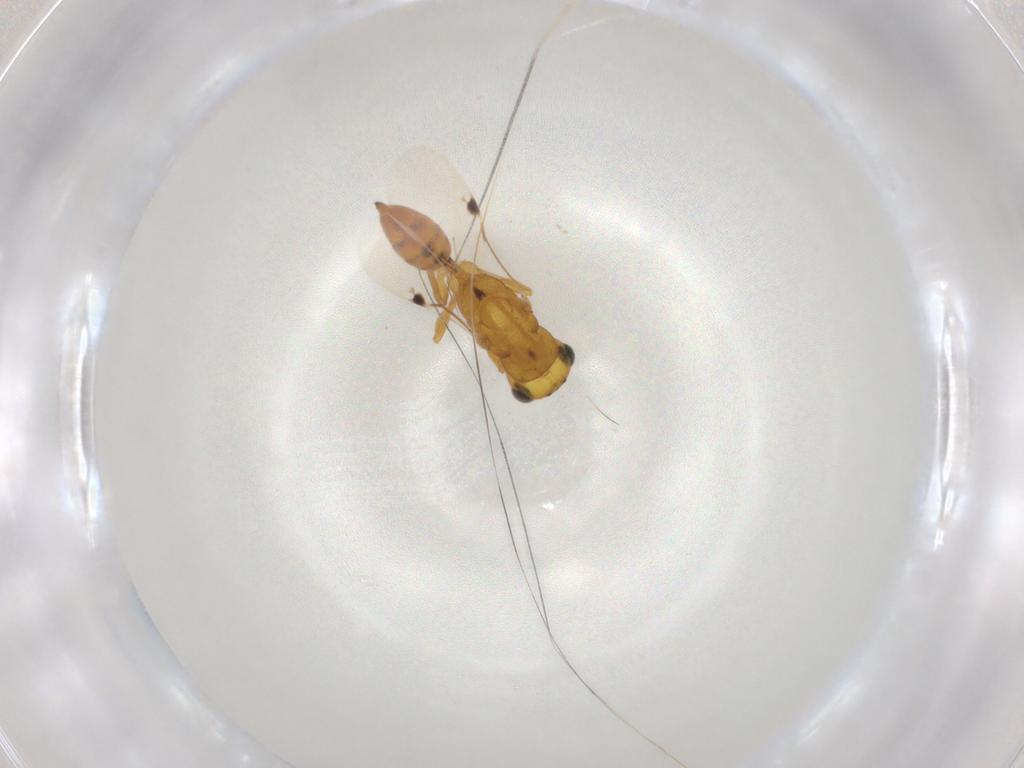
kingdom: Animalia
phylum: Arthropoda
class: Insecta
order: Hymenoptera
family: Eurytomidae
